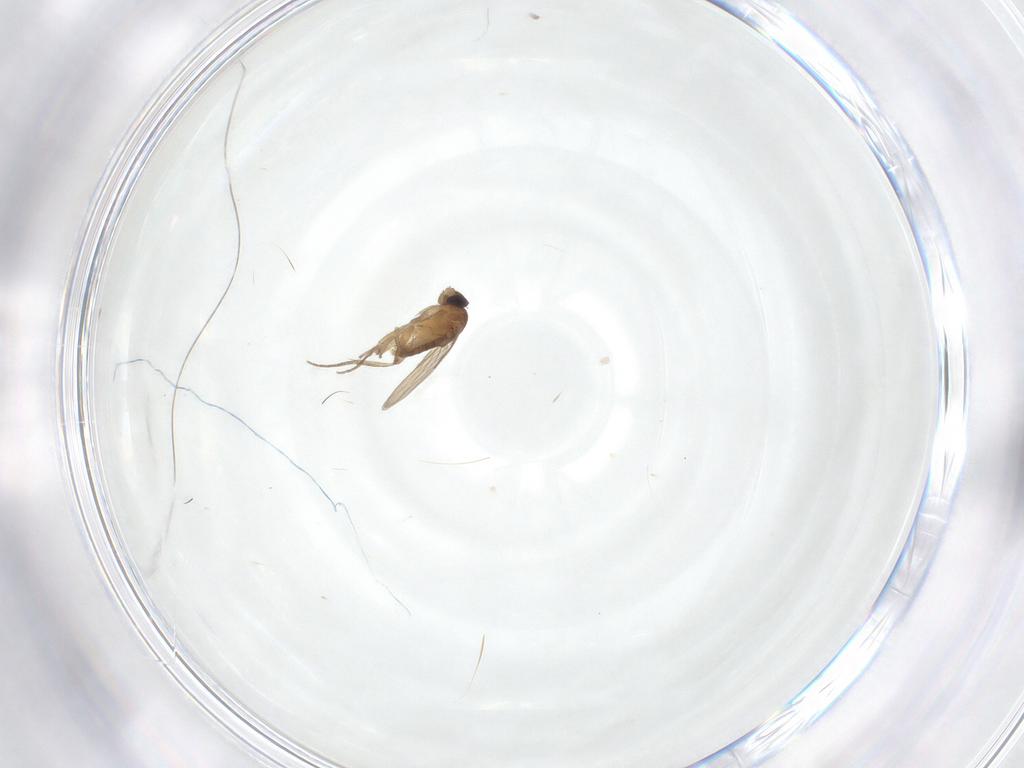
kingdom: Animalia
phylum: Arthropoda
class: Insecta
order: Diptera
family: Phoridae
